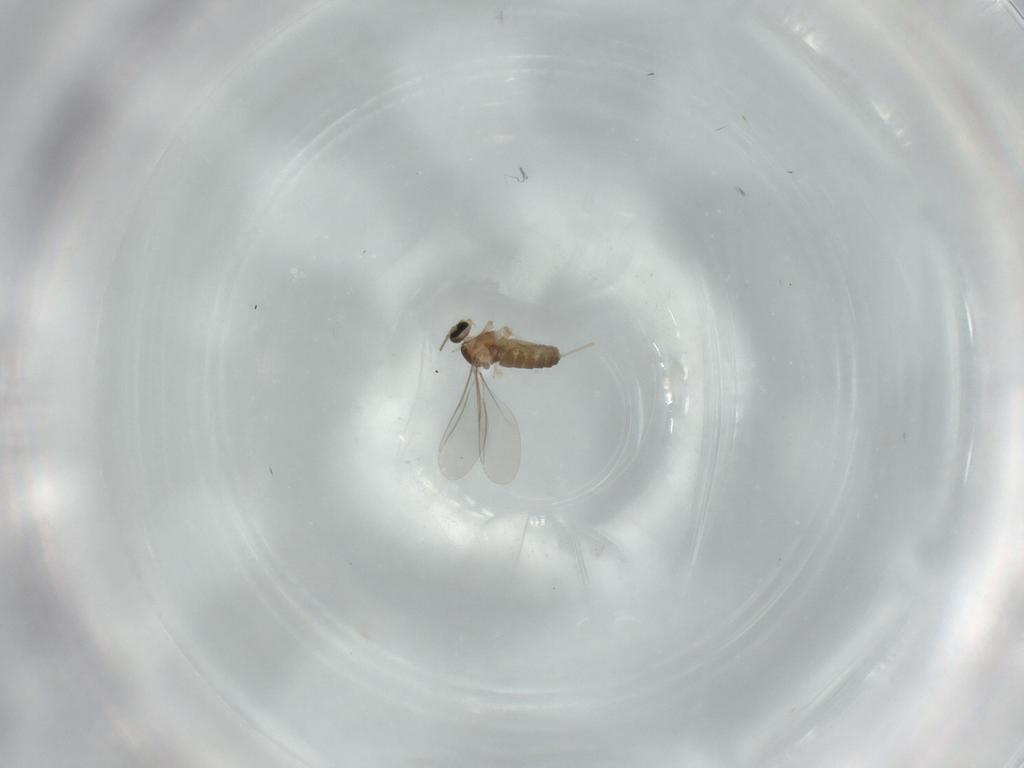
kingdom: Animalia
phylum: Arthropoda
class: Insecta
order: Diptera
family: Cecidomyiidae
